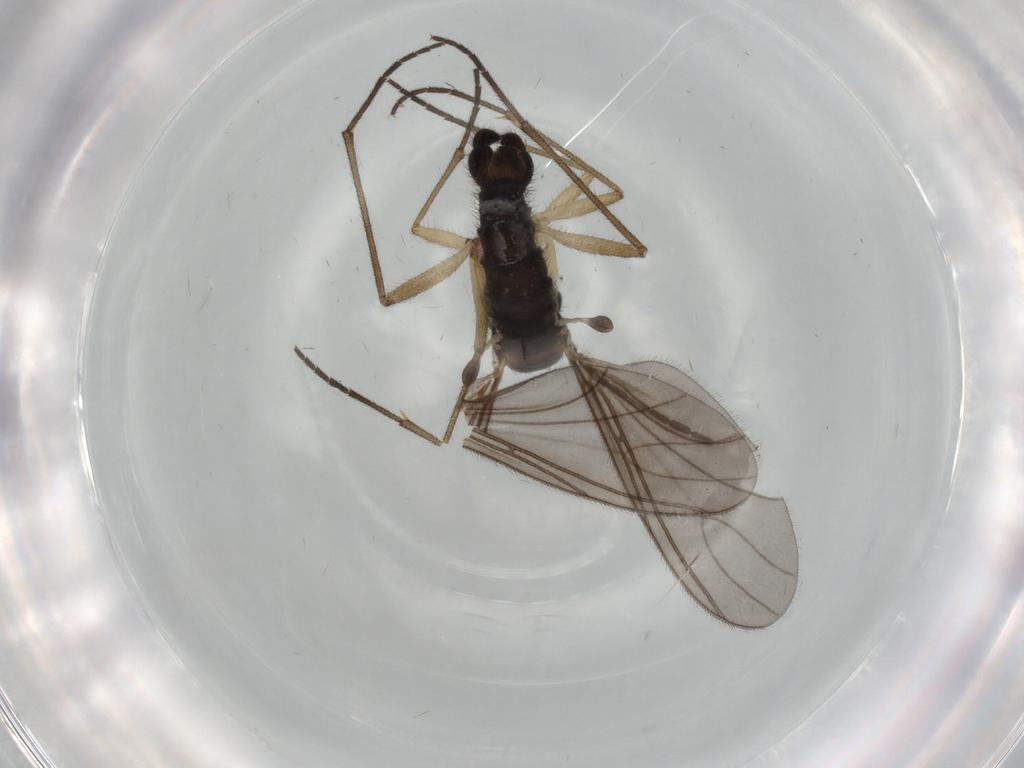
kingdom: Animalia
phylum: Arthropoda
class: Insecta
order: Diptera
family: Sciaridae
